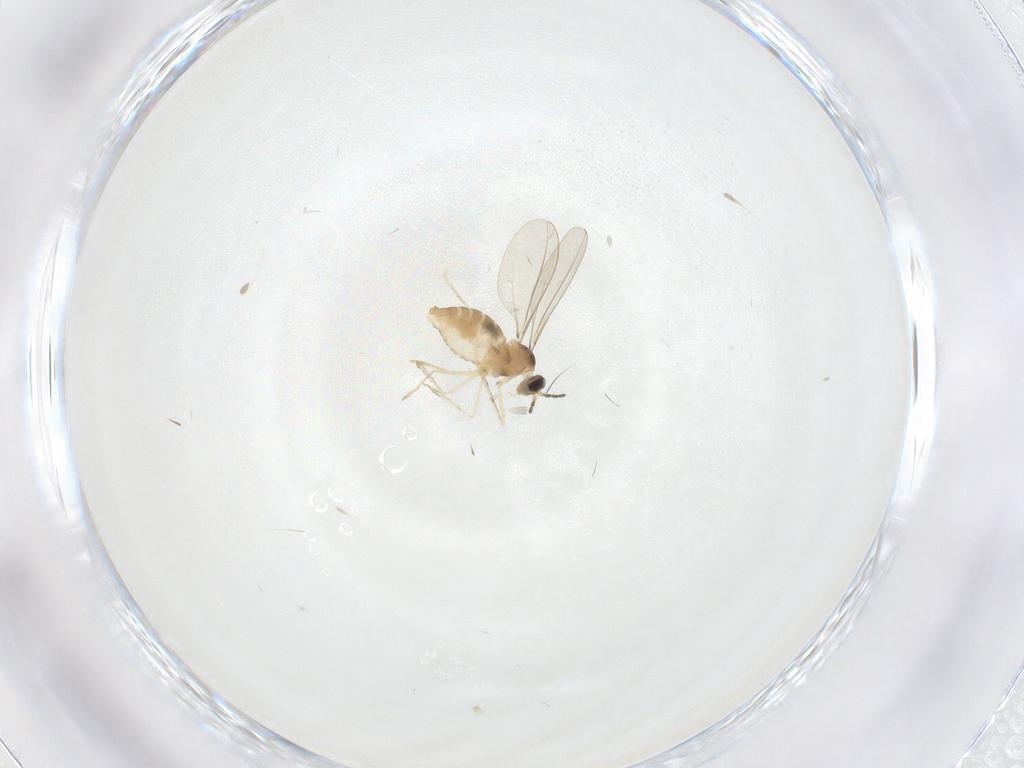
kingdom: Animalia
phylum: Arthropoda
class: Insecta
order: Diptera
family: Cecidomyiidae
